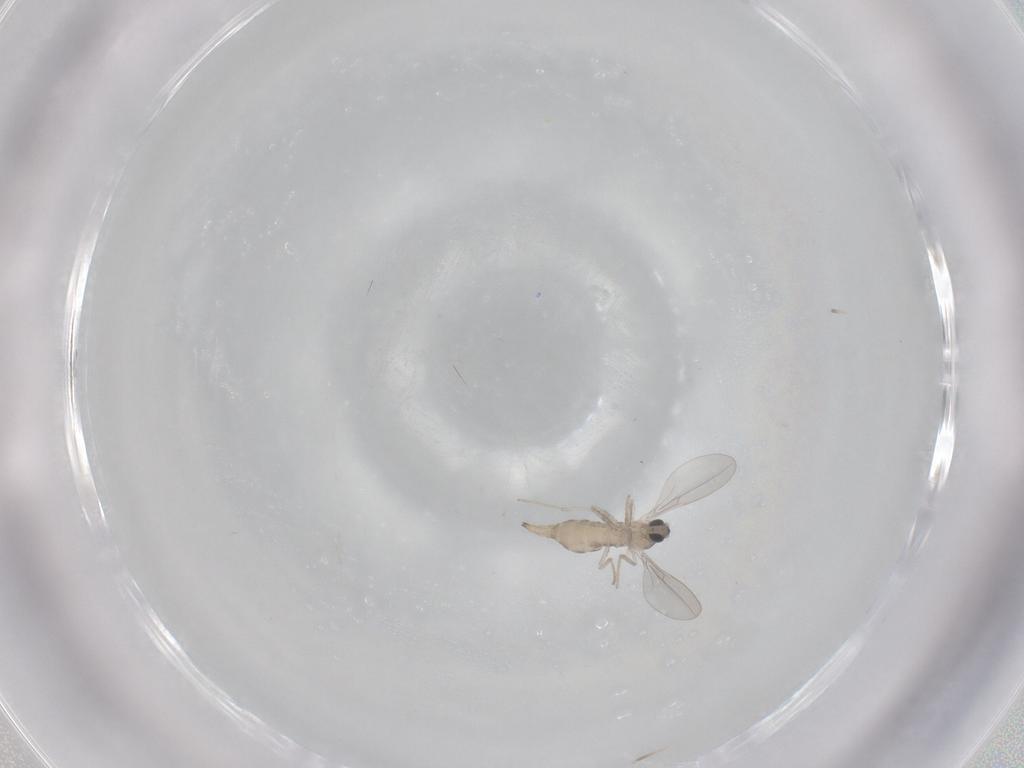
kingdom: Animalia
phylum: Arthropoda
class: Insecta
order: Diptera
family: Cecidomyiidae
